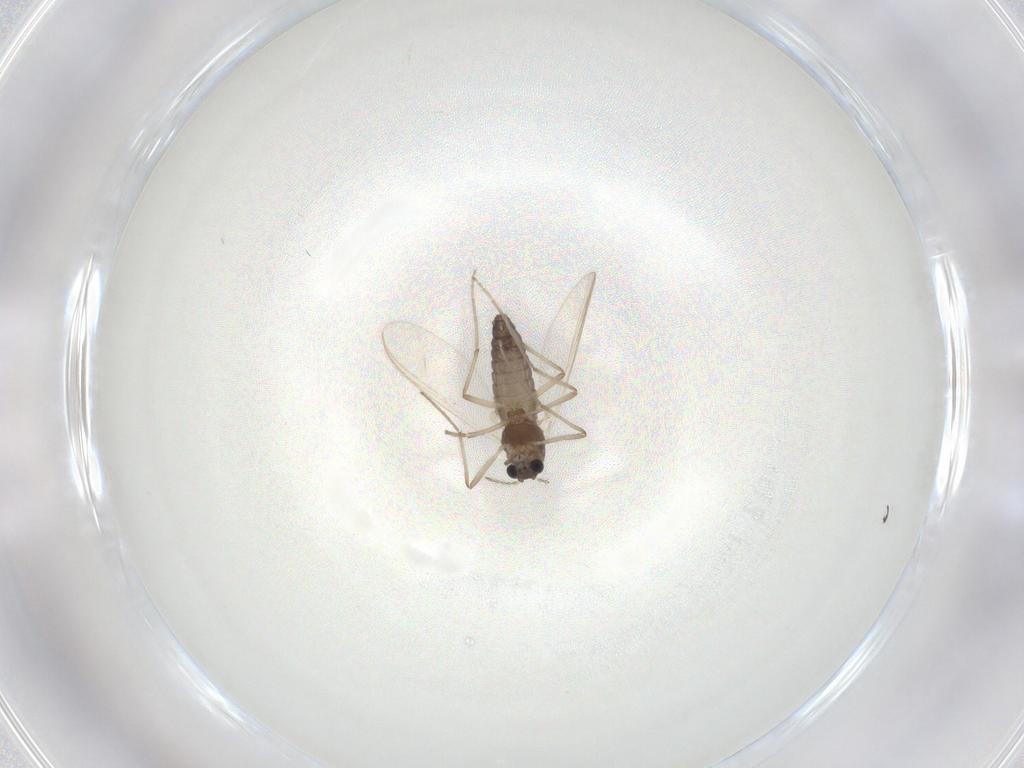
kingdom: Animalia
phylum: Arthropoda
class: Insecta
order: Diptera
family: Chironomidae
